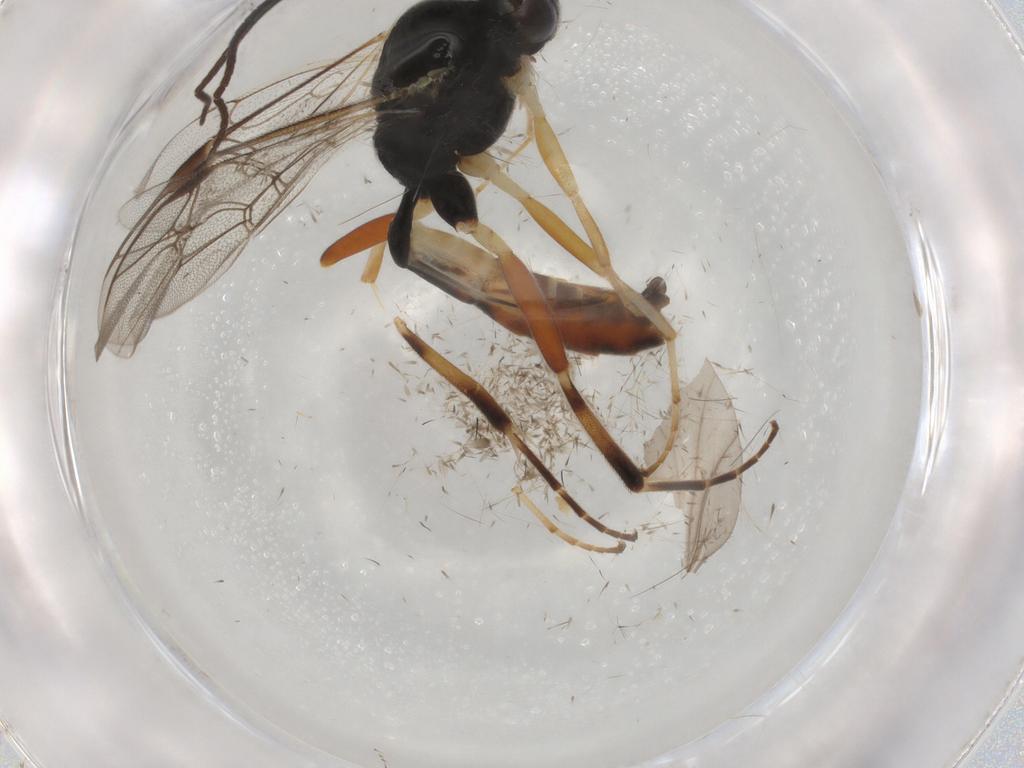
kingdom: Animalia
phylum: Arthropoda
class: Insecta
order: Hymenoptera
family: Ichneumonidae
